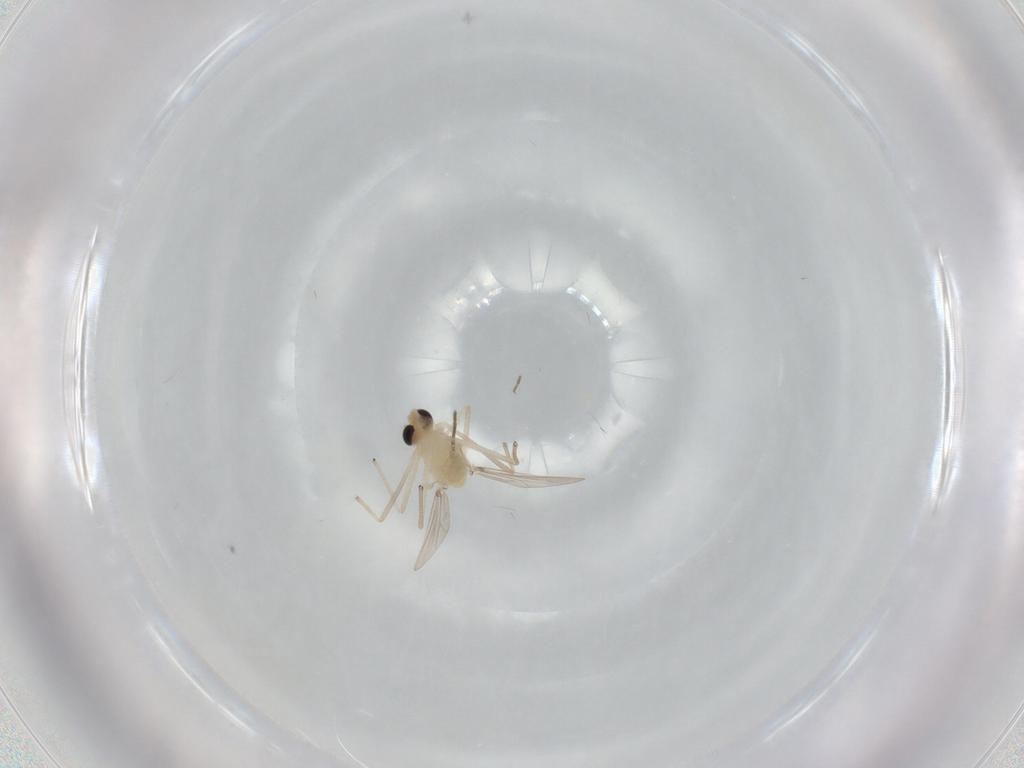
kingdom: Animalia
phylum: Arthropoda
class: Insecta
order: Diptera
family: Chironomidae
